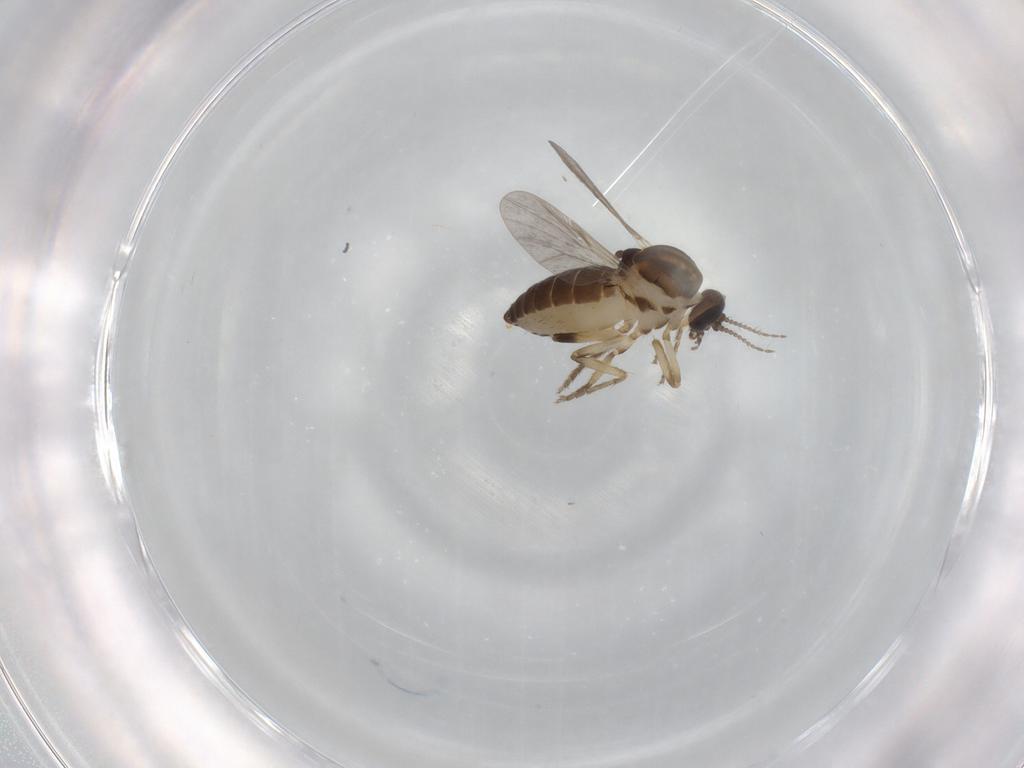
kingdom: Animalia
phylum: Arthropoda
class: Insecta
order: Diptera
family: Ceratopogonidae
